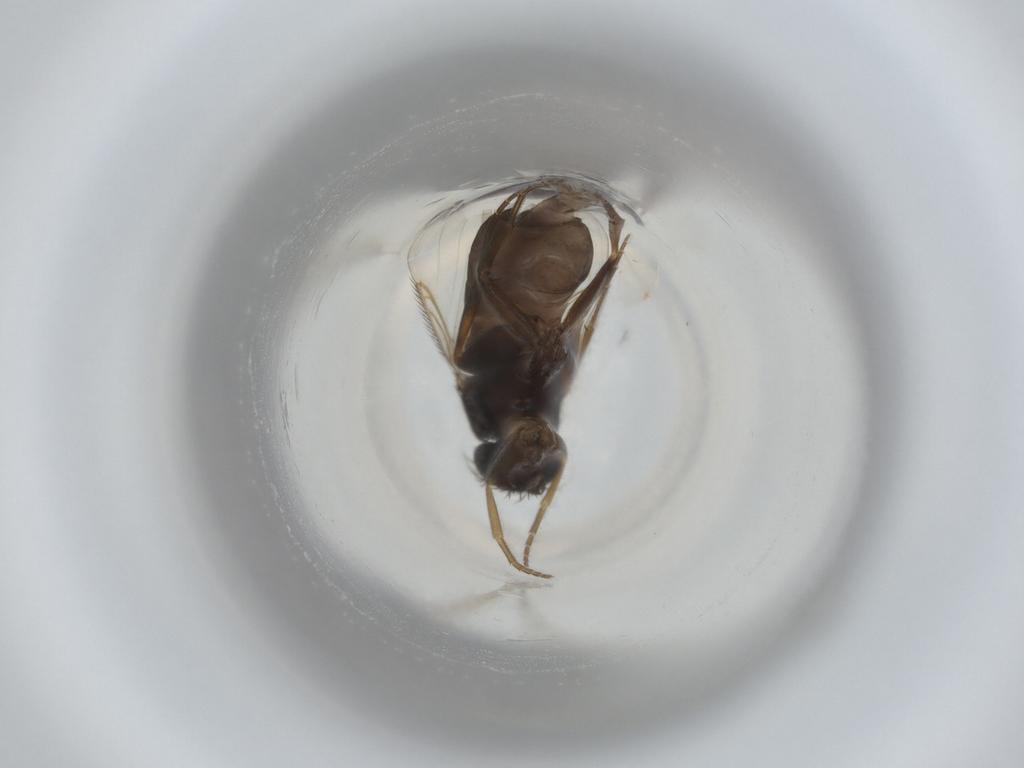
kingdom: Animalia
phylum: Arthropoda
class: Insecta
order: Diptera
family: Phoridae
